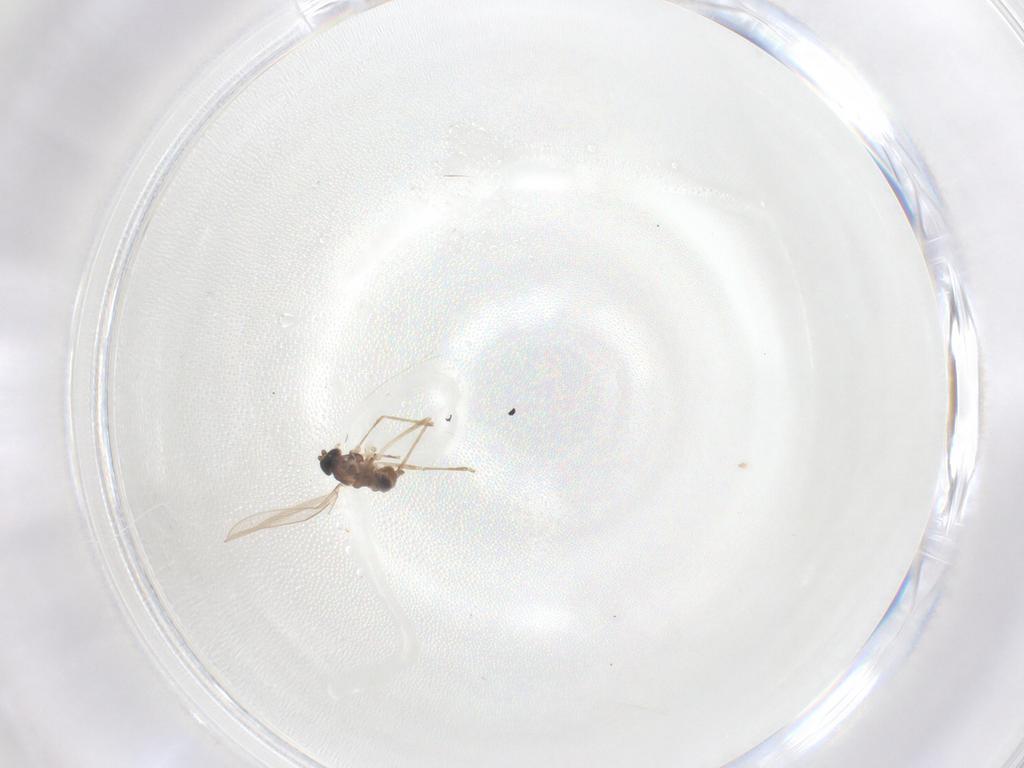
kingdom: Animalia
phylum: Arthropoda
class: Insecta
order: Diptera
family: Cecidomyiidae
